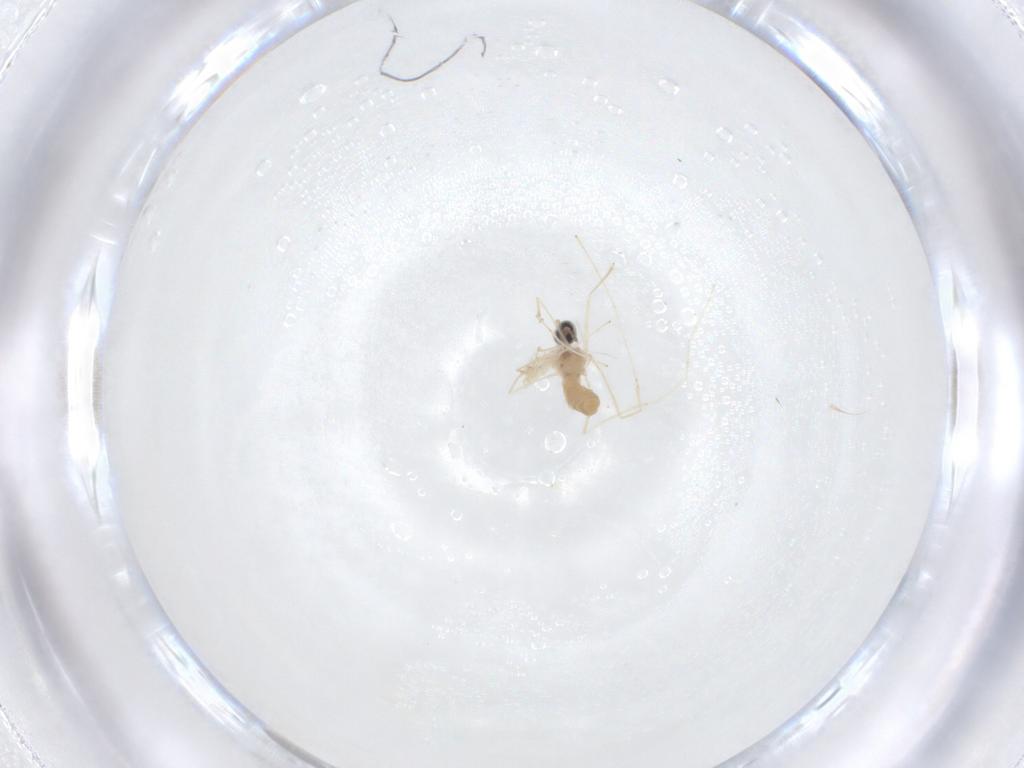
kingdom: Animalia
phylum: Arthropoda
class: Insecta
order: Diptera
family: Cecidomyiidae
